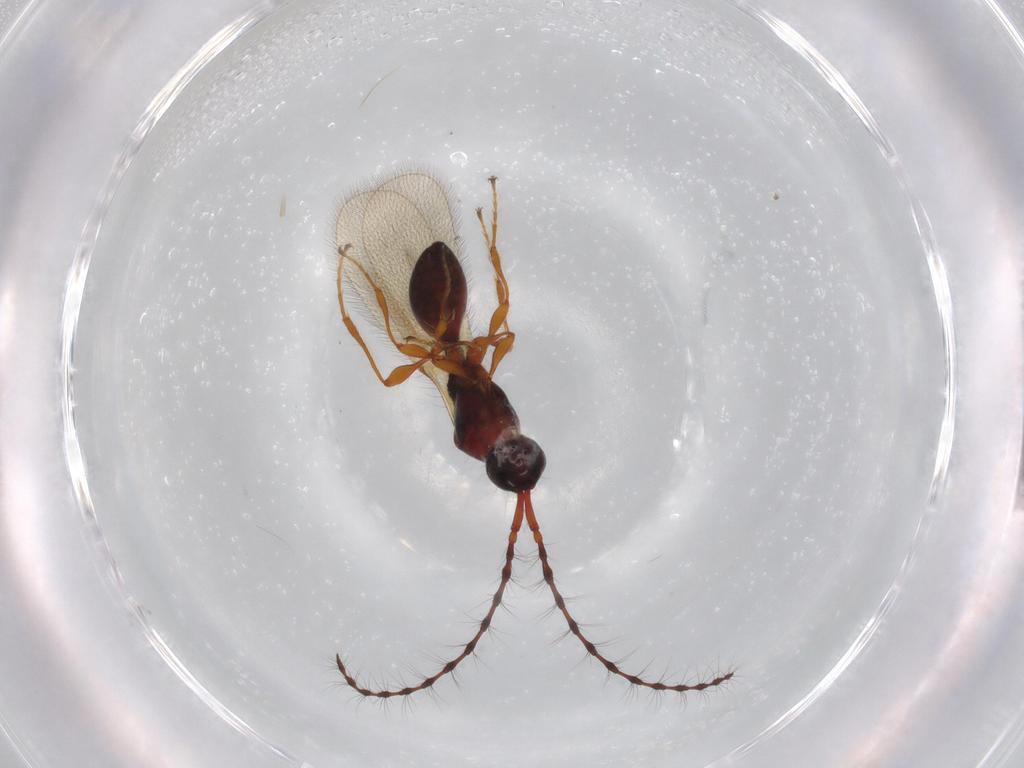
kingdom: Animalia
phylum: Arthropoda
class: Insecta
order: Hymenoptera
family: Diapriidae
